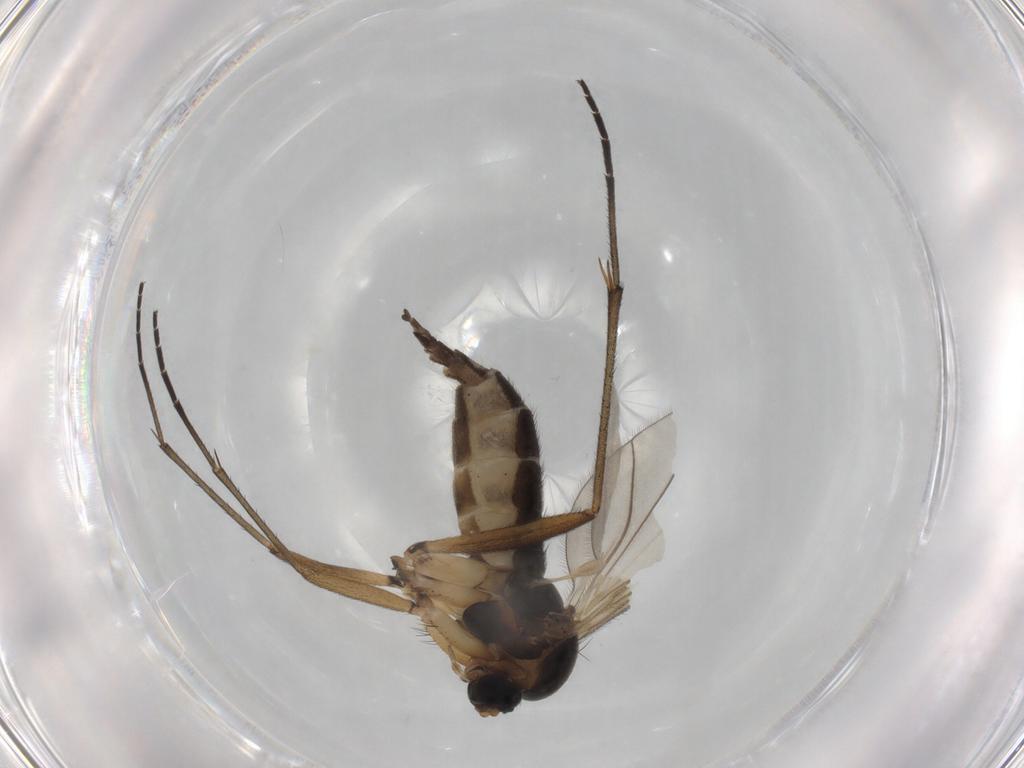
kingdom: Animalia
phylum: Arthropoda
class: Insecta
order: Diptera
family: Sciaridae
